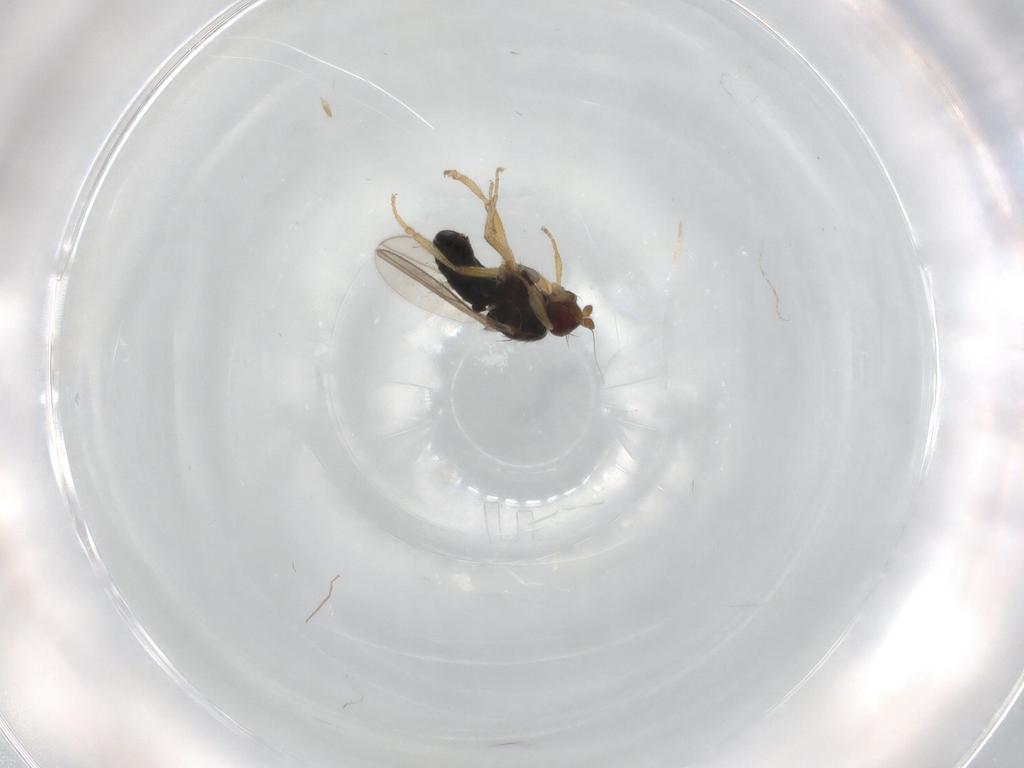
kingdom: Animalia
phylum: Arthropoda
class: Insecta
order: Diptera
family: Sphaeroceridae
